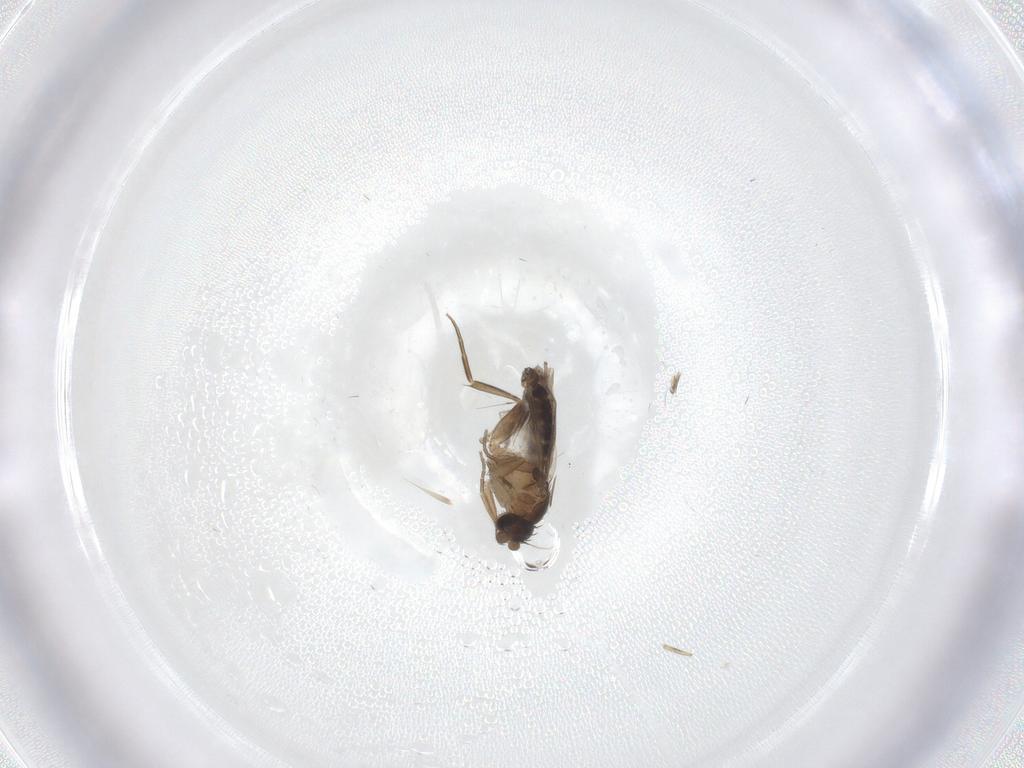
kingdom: Animalia
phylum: Arthropoda
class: Insecta
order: Diptera
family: Phoridae
